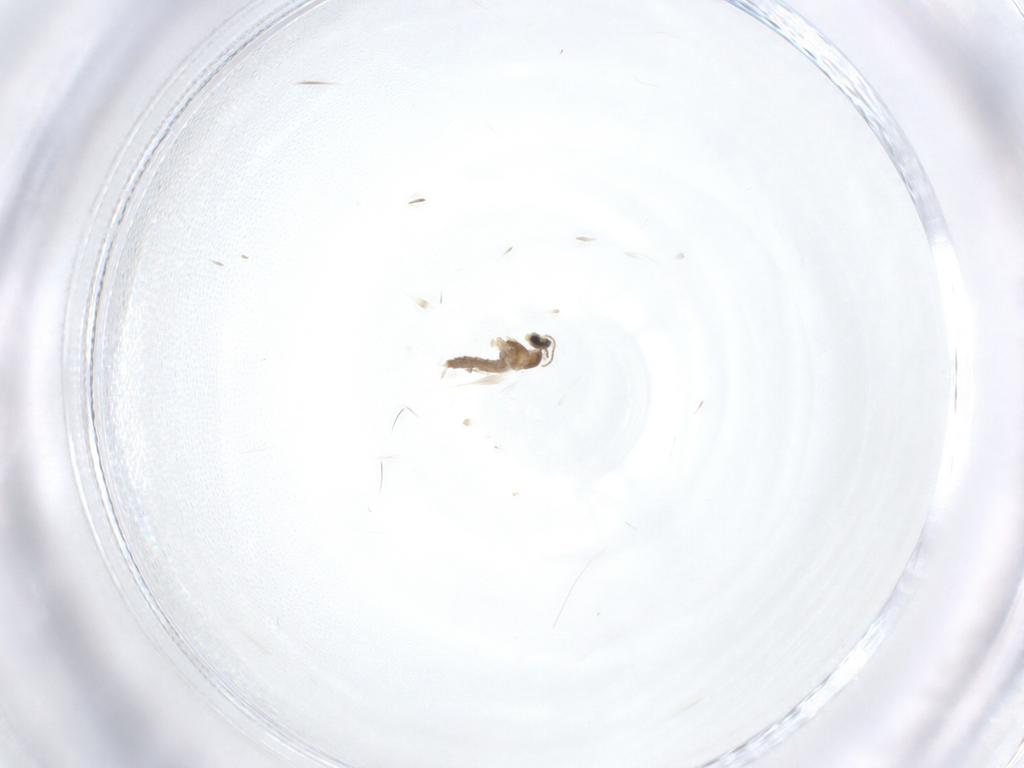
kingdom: Animalia
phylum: Arthropoda
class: Insecta
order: Diptera
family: Cecidomyiidae
